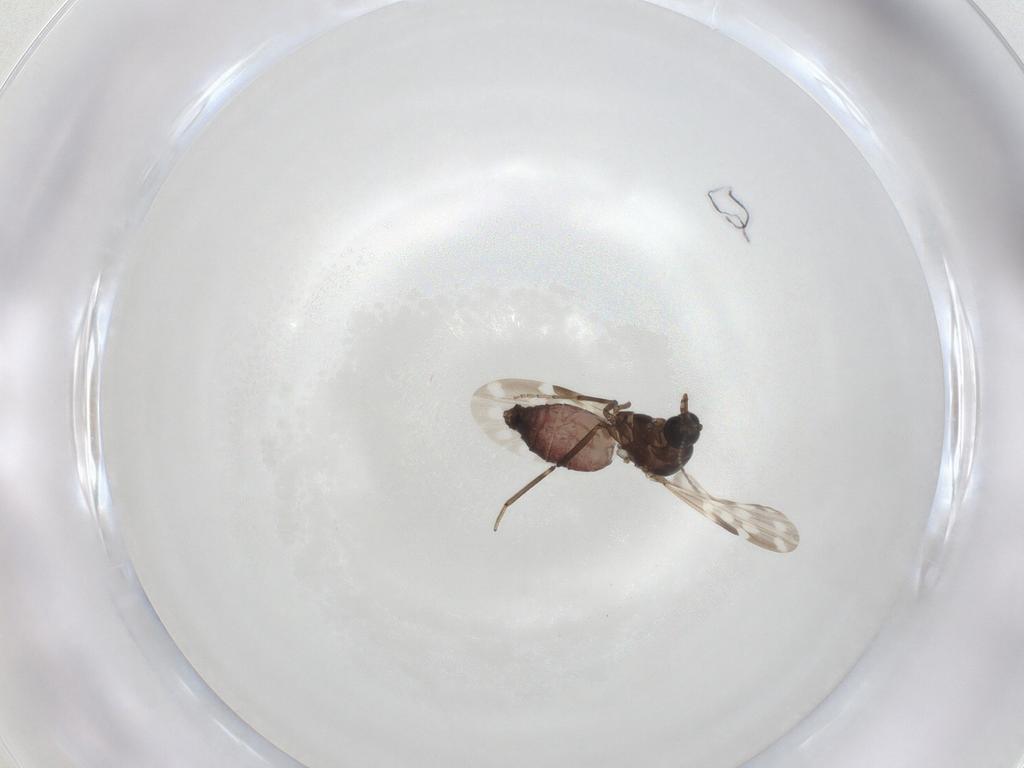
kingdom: Animalia
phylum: Arthropoda
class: Insecta
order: Diptera
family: Ceratopogonidae
